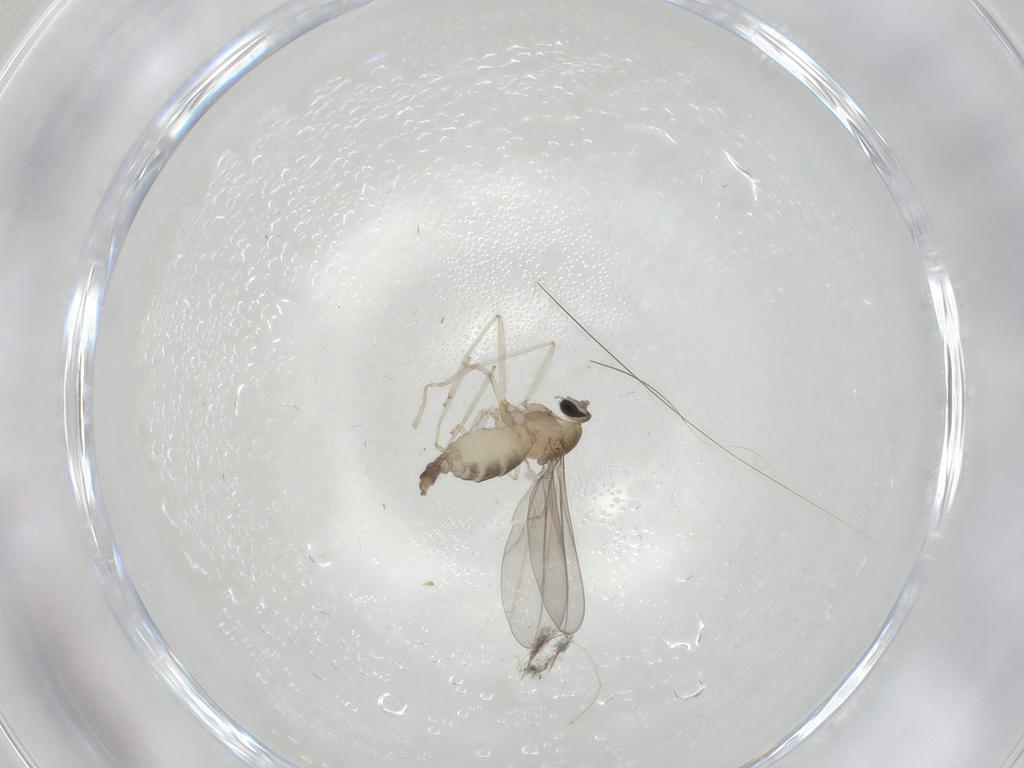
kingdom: Animalia
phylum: Arthropoda
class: Insecta
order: Diptera
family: Cecidomyiidae
